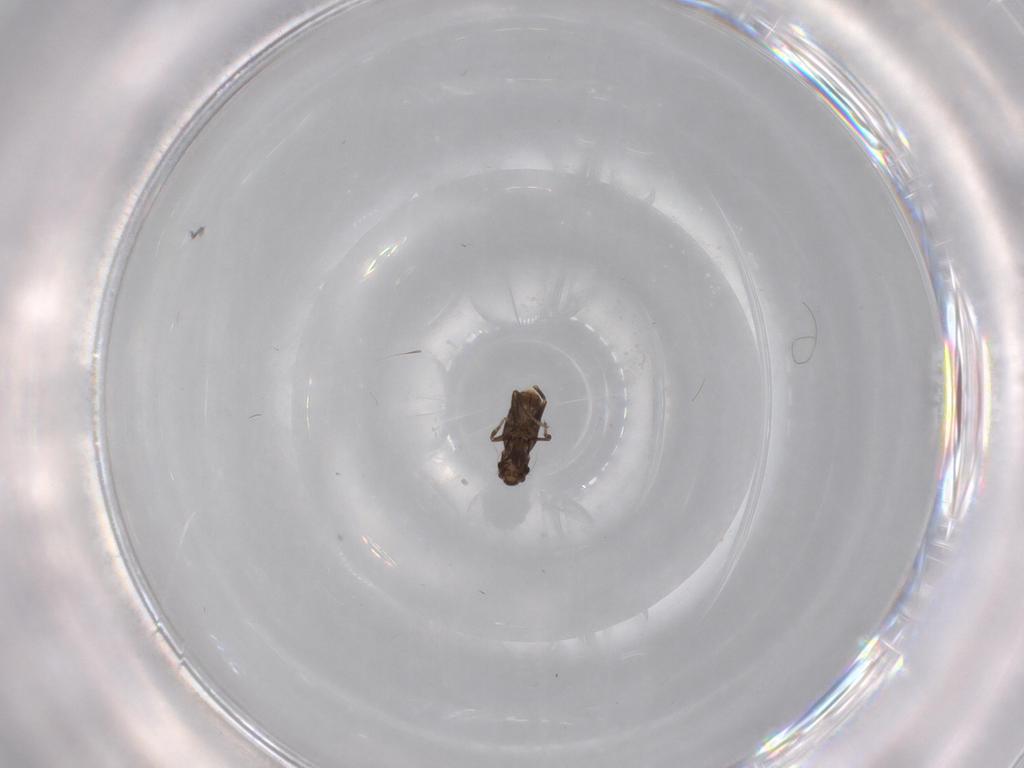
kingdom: Animalia
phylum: Arthropoda
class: Insecta
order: Diptera
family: Phoridae
